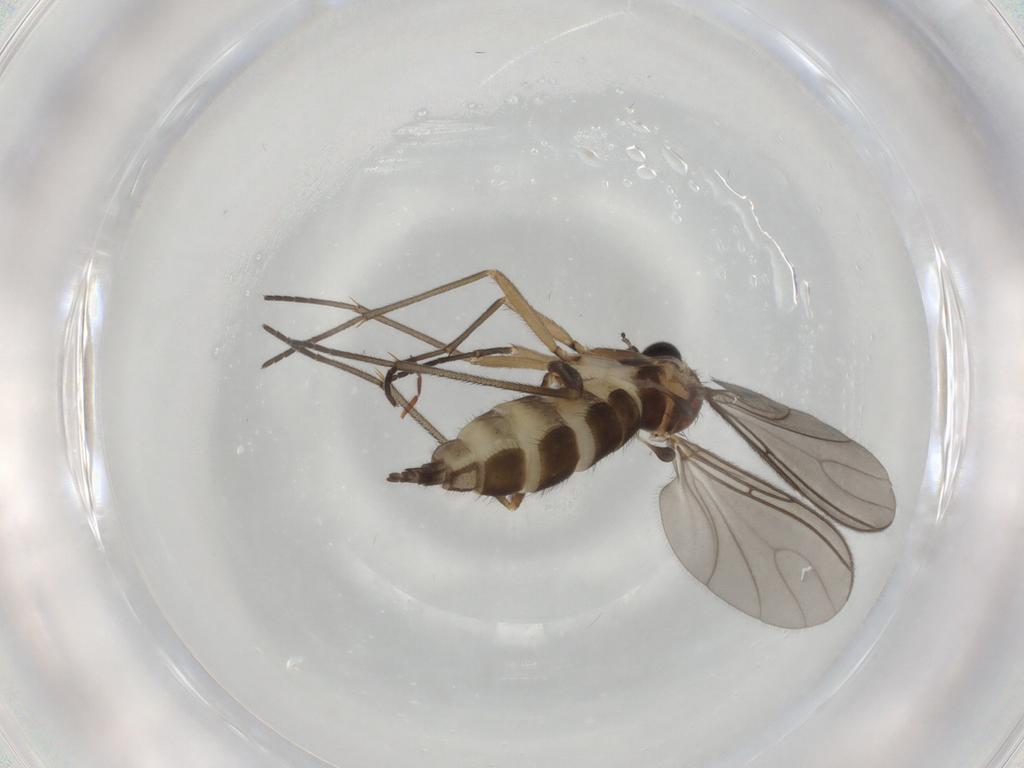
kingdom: Animalia
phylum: Arthropoda
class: Insecta
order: Diptera
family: Sciaridae
